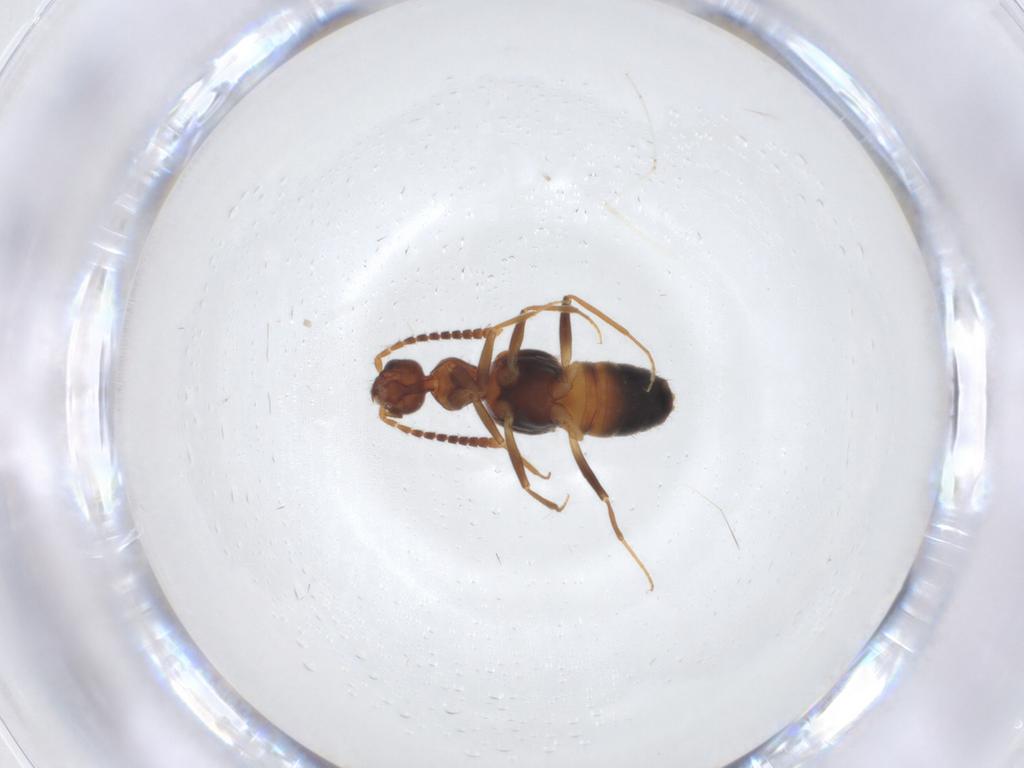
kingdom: Animalia
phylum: Arthropoda
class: Insecta
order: Coleoptera
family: Staphylinidae
